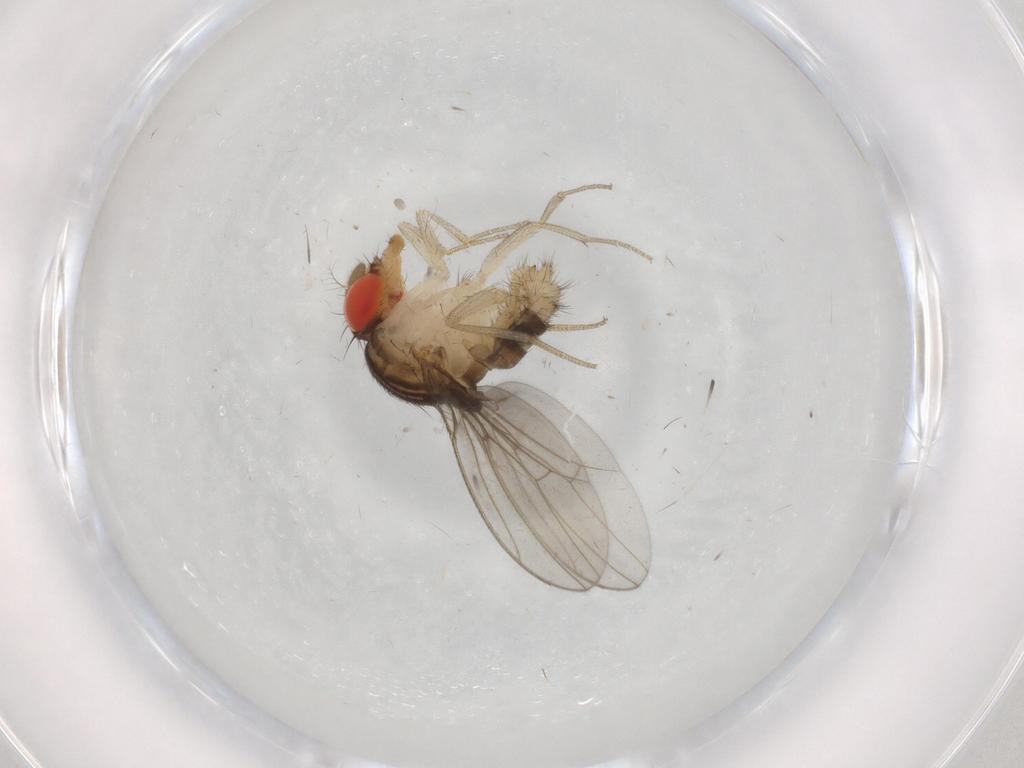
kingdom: Animalia
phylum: Arthropoda
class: Insecta
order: Diptera
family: Drosophilidae
